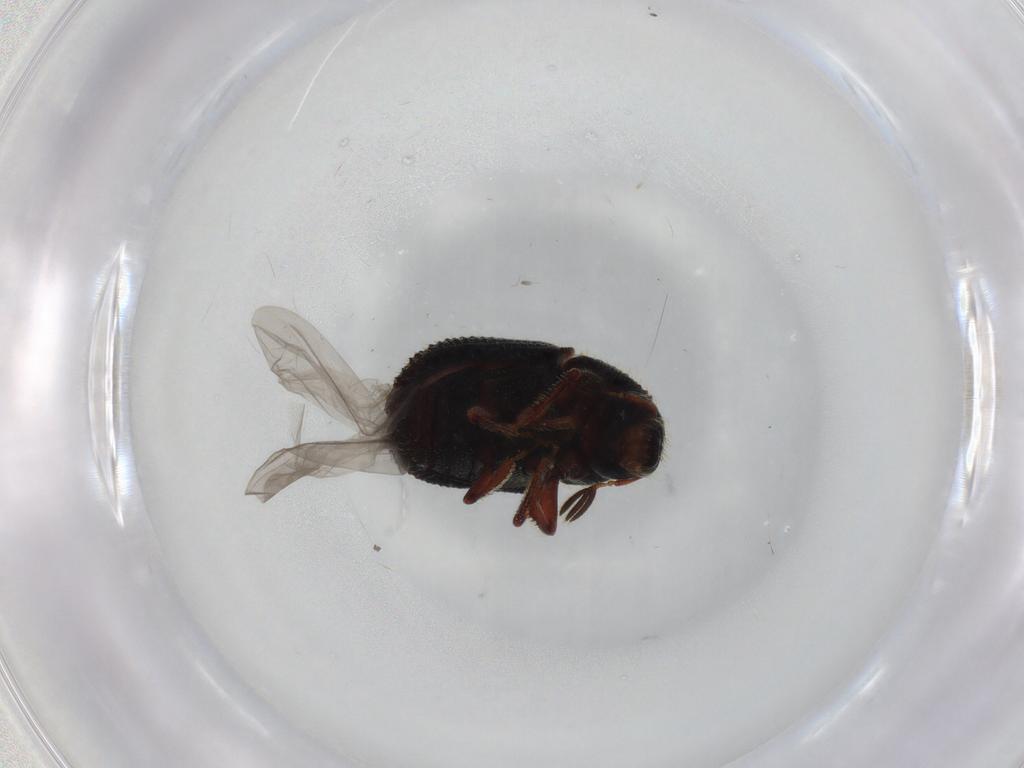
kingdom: Animalia
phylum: Arthropoda
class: Insecta
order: Coleoptera
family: Curculionidae
